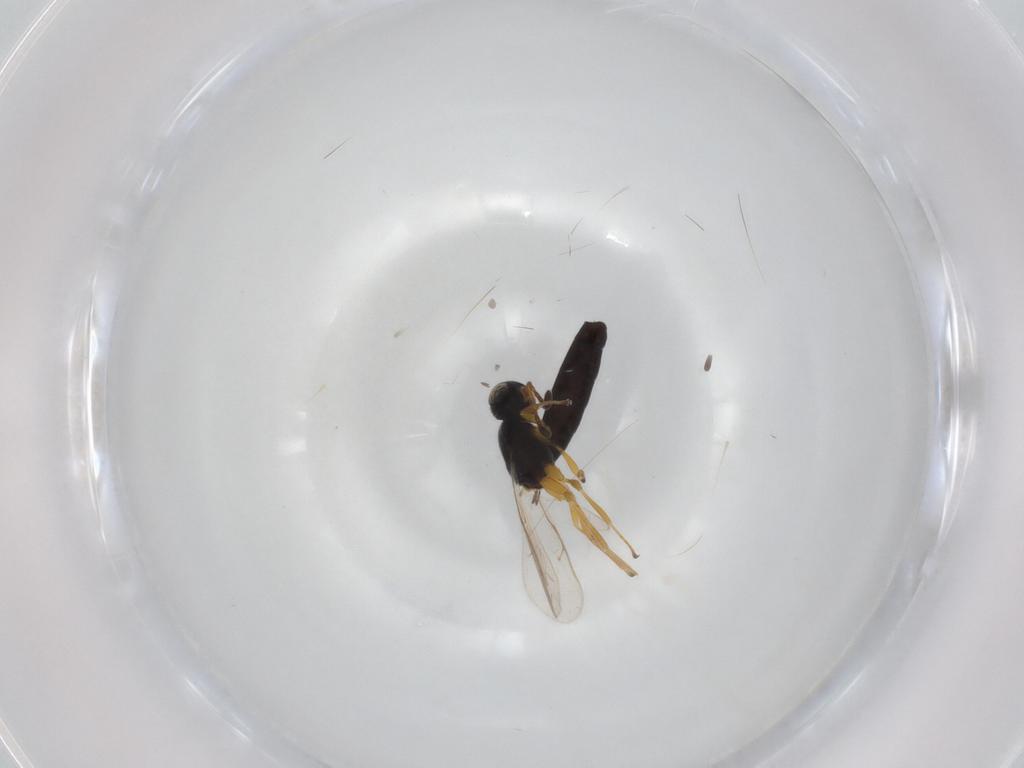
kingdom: Animalia
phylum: Arthropoda
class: Insecta
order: Hymenoptera
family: Scelionidae
